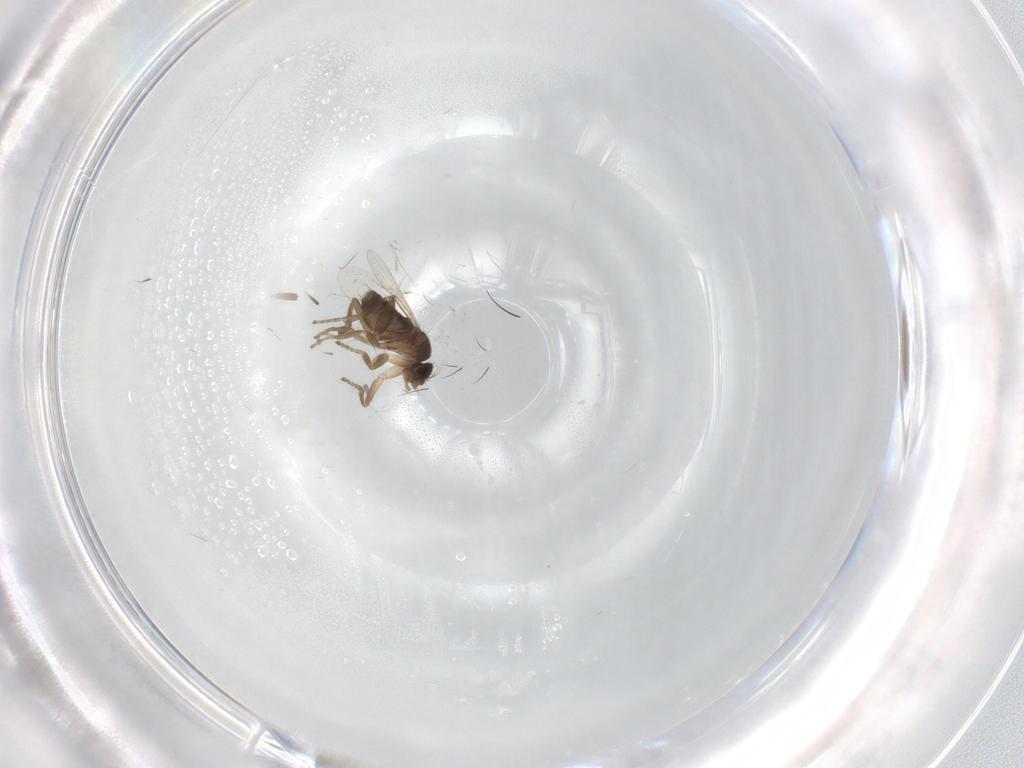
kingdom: Animalia
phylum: Arthropoda
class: Insecta
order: Diptera
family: Phoridae
